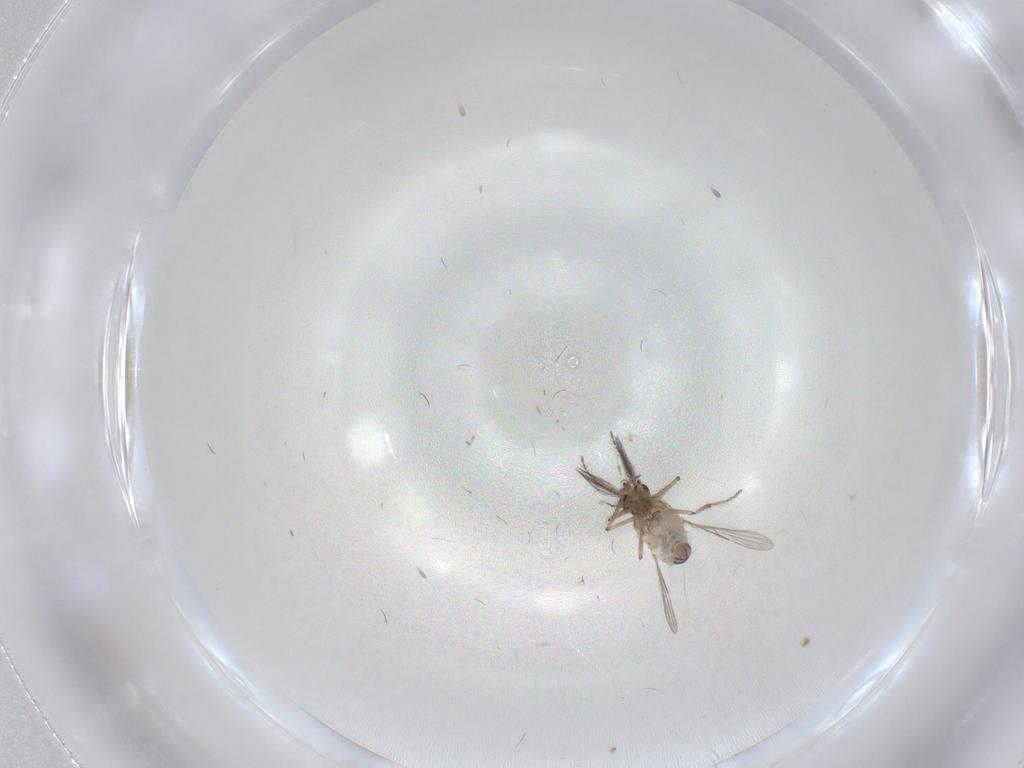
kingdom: Animalia
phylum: Arthropoda
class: Insecta
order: Diptera
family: Ceratopogonidae
